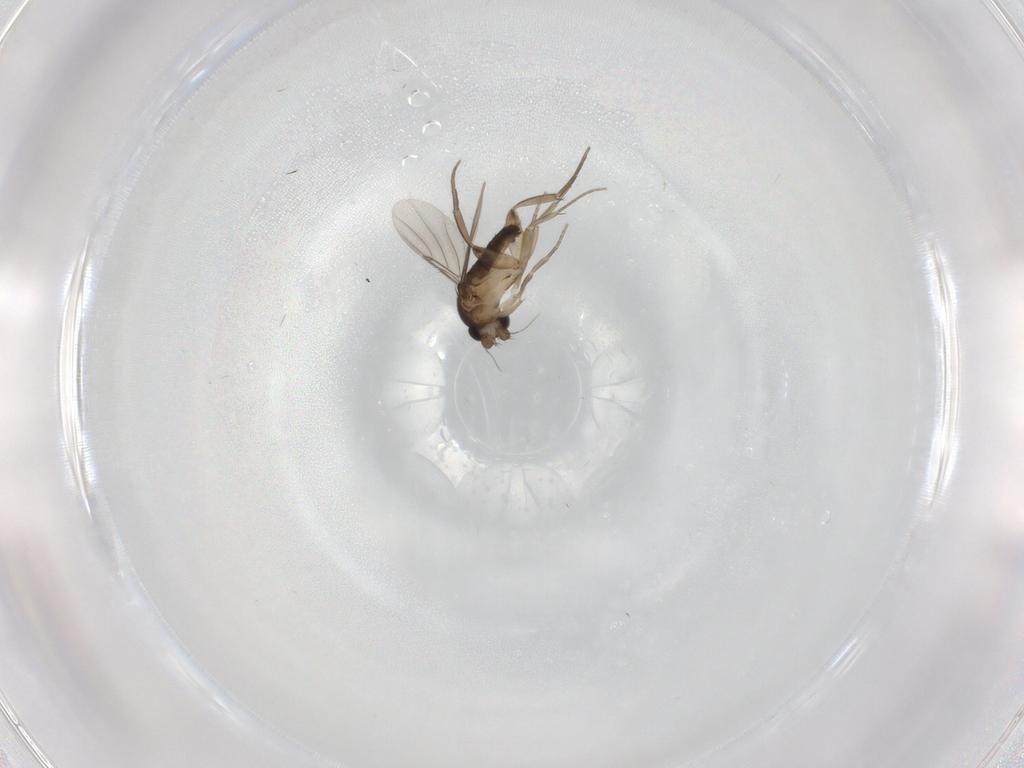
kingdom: Animalia
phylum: Arthropoda
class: Insecta
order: Diptera
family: Phoridae
